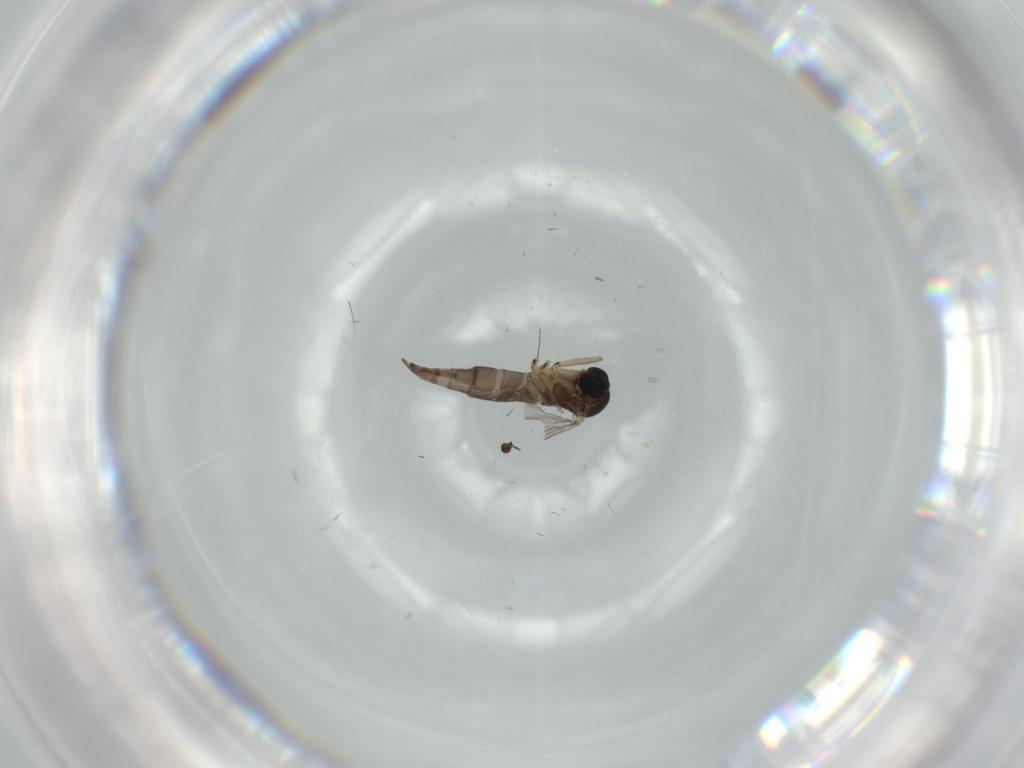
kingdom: Animalia
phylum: Arthropoda
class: Insecta
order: Diptera
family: Sciaridae
